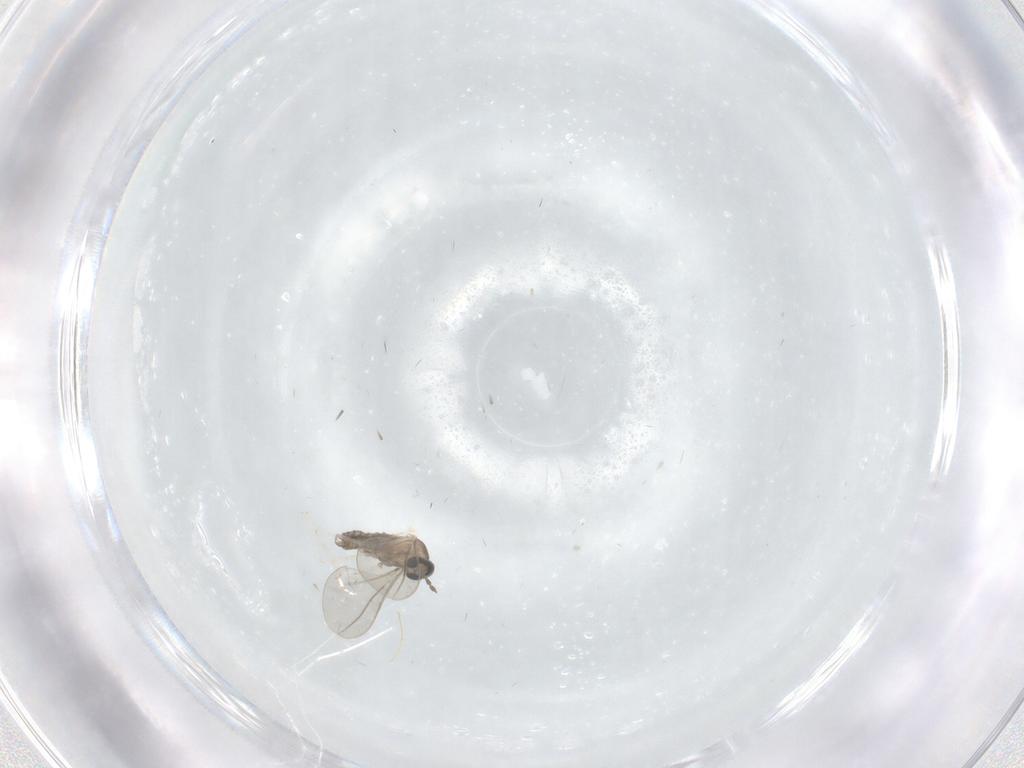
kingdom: Animalia
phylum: Arthropoda
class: Insecta
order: Diptera
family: Cecidomyiidae
